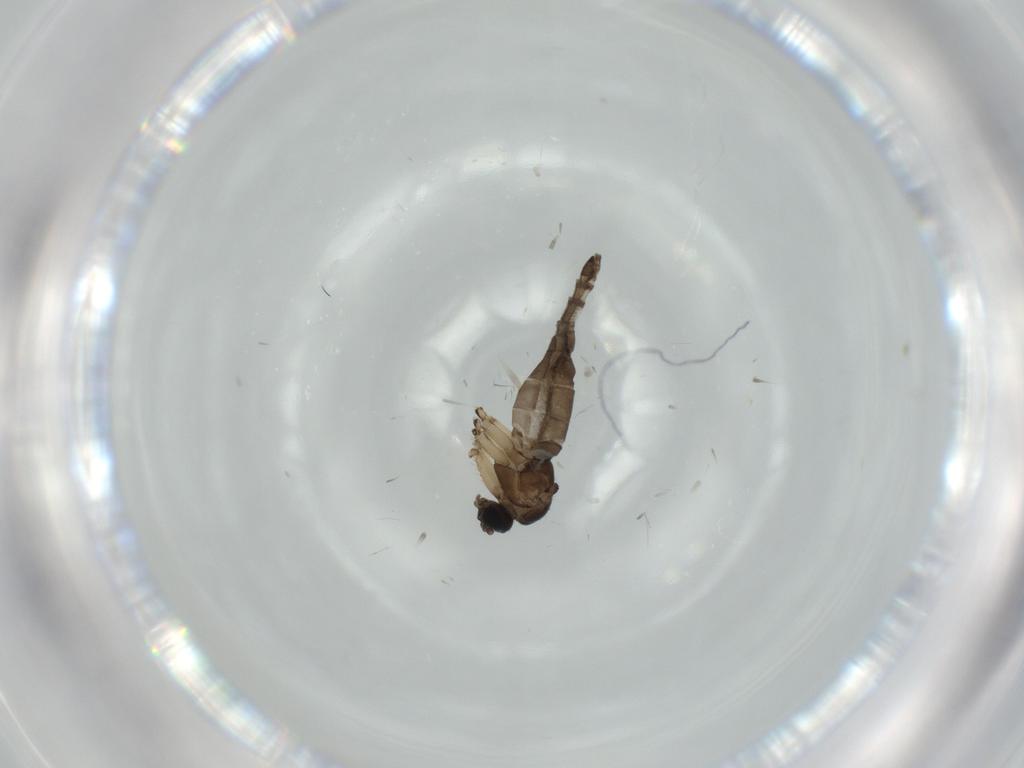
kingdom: Animalia
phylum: Arthropoda
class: Insecta
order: Diptera
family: Sciaridae
